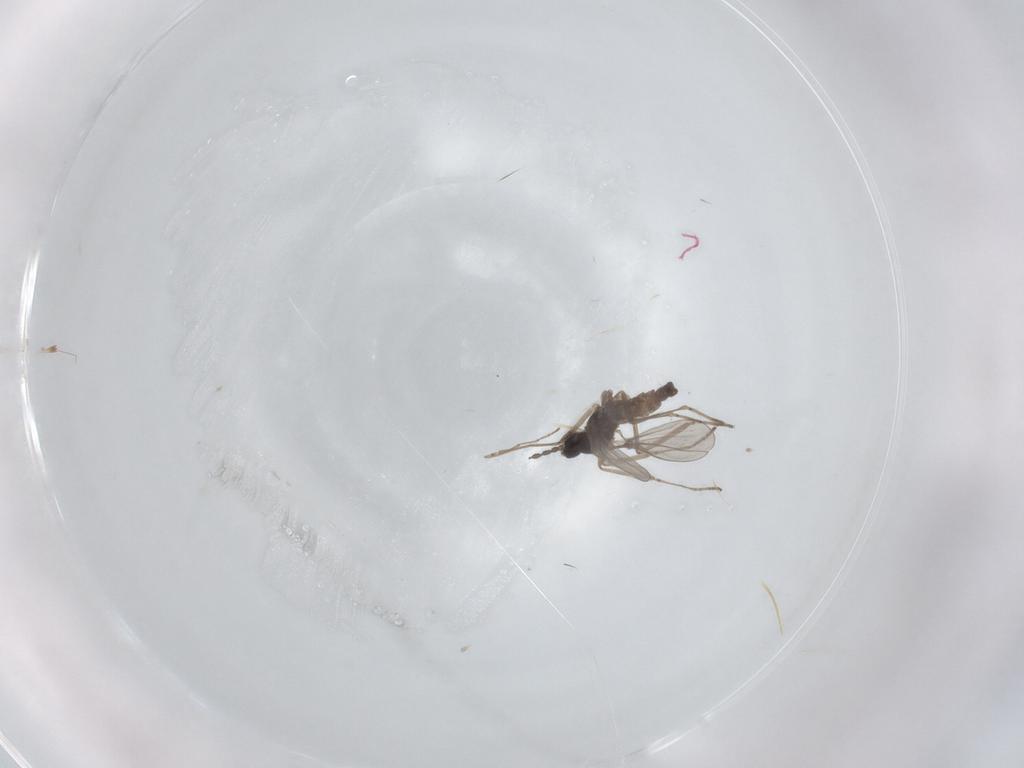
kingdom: Animalia
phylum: Arthropoda
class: Insecta
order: Diptera
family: Cecidomyiidae
